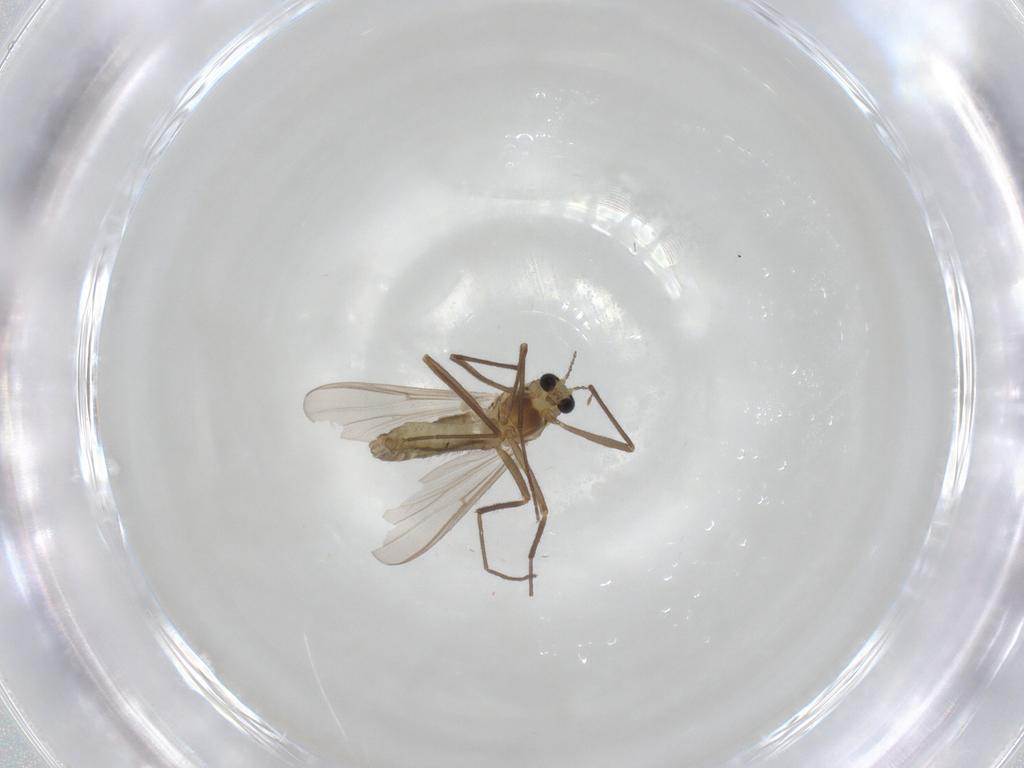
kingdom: Animalia
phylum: Arthropoda
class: Insecta
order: Diptera
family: Chironomidae
